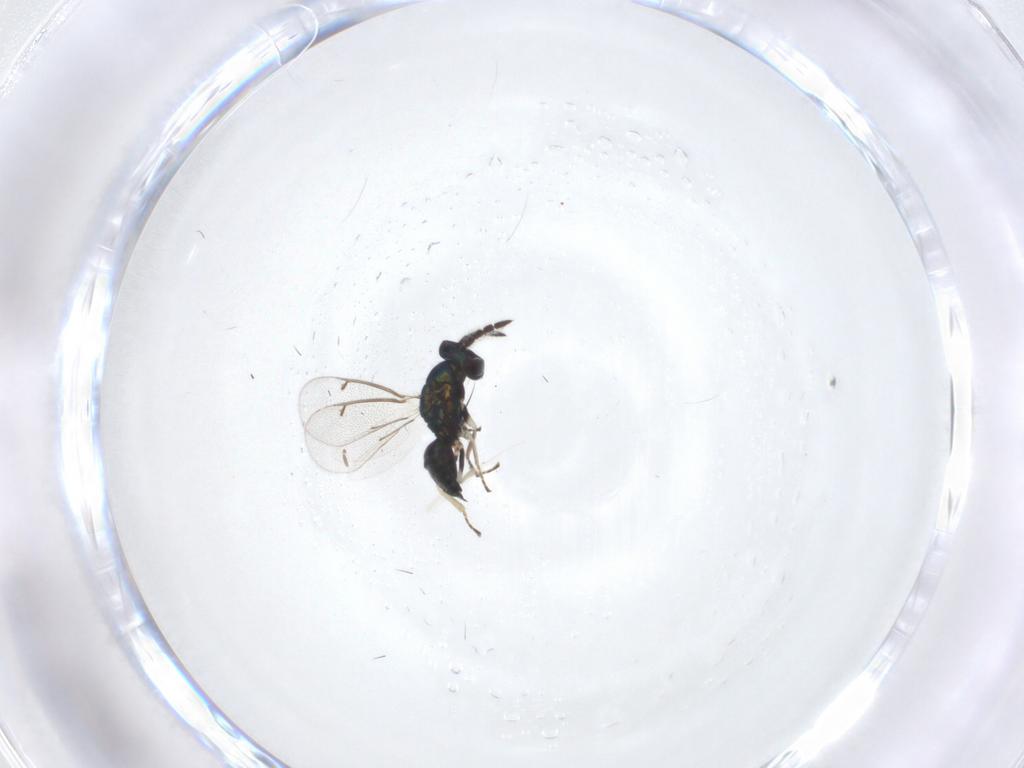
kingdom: Animalia
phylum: Arthropoda
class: Insecta
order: Hymenoptera
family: Eulophidae
